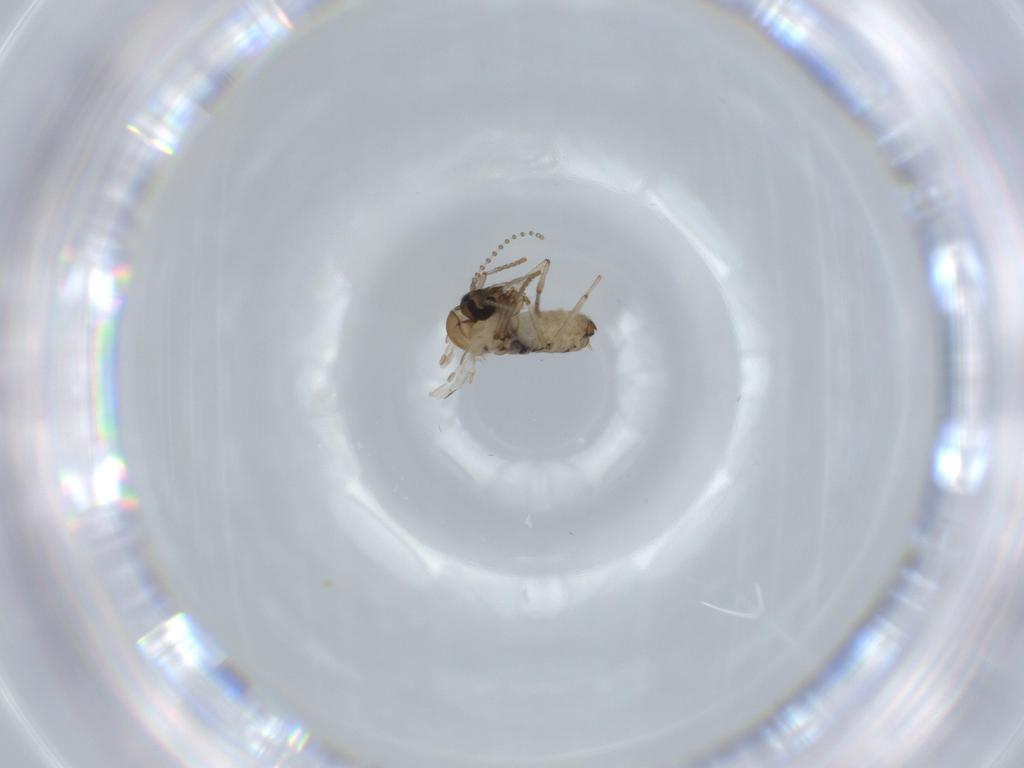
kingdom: Animalia
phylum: Arthropoda
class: Insecta
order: Diptera
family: Psychodidae
